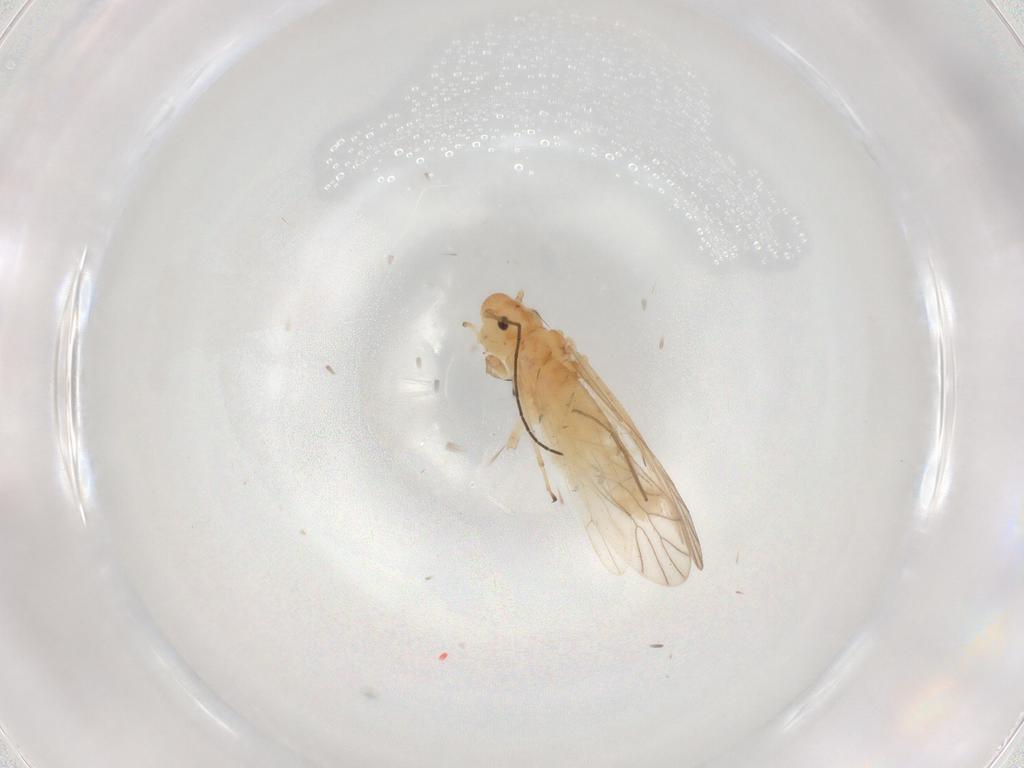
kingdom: Animalia
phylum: Arthropoda
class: Insecta
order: Psocodea
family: Caeciliusidae
